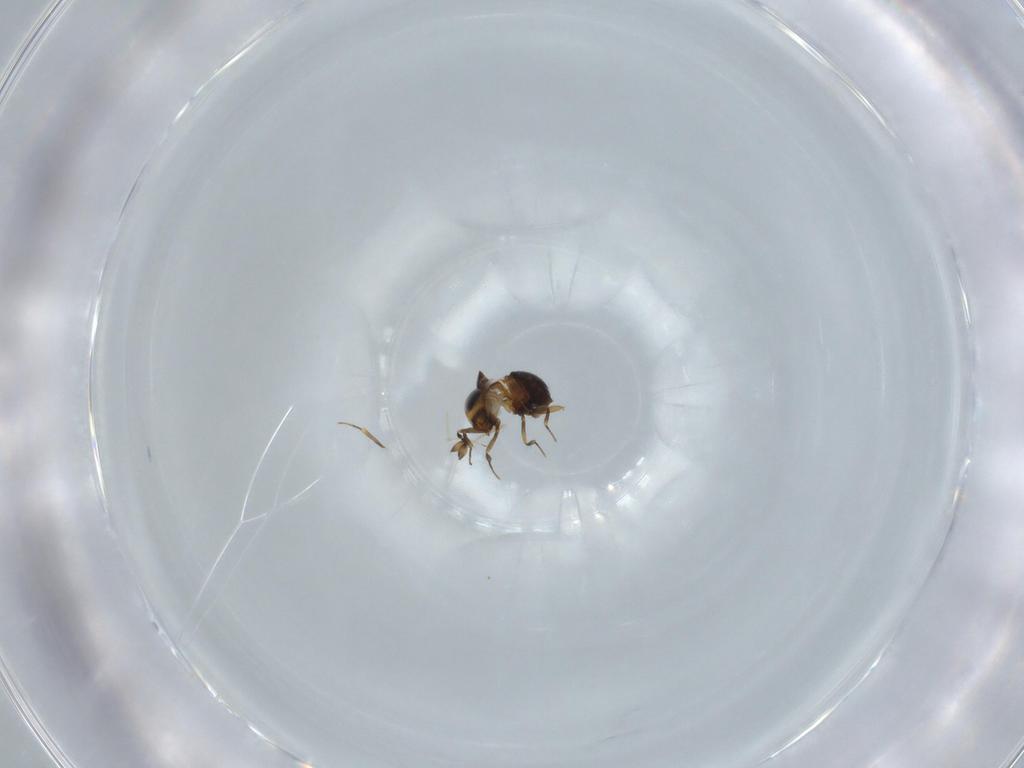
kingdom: Animalia
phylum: Arthropoda
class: Insecta
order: Hymenoptera
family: Scelionidae
